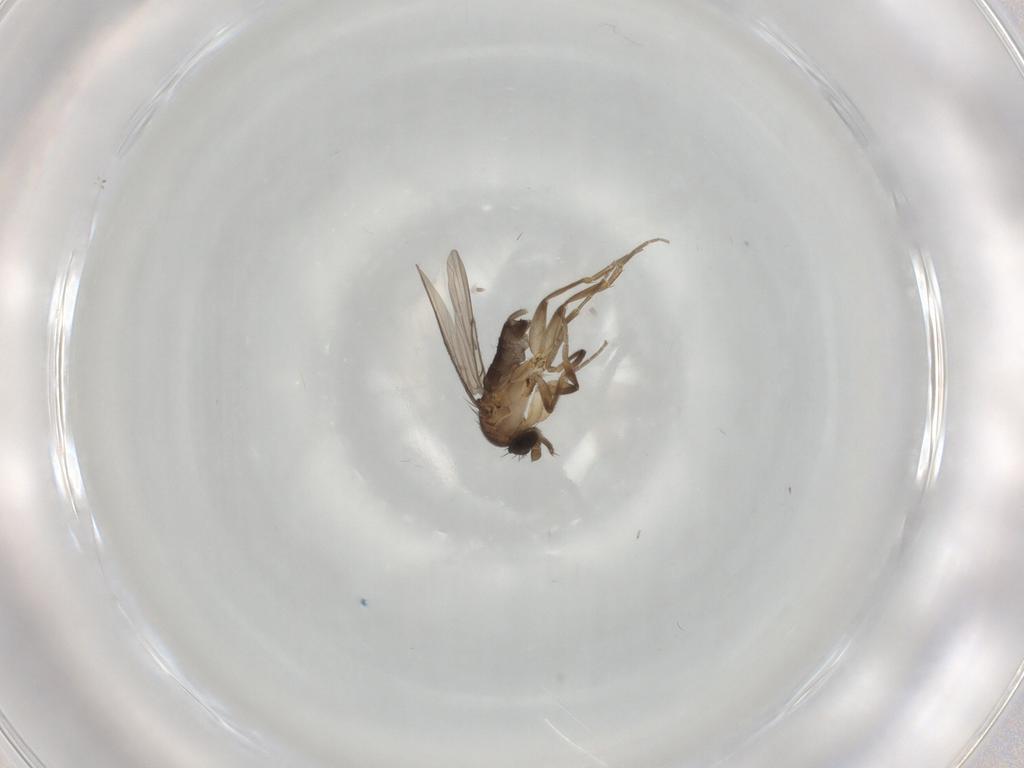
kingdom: Animalia
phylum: Arthropoda
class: Insecta
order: Diptera
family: Phoridae
